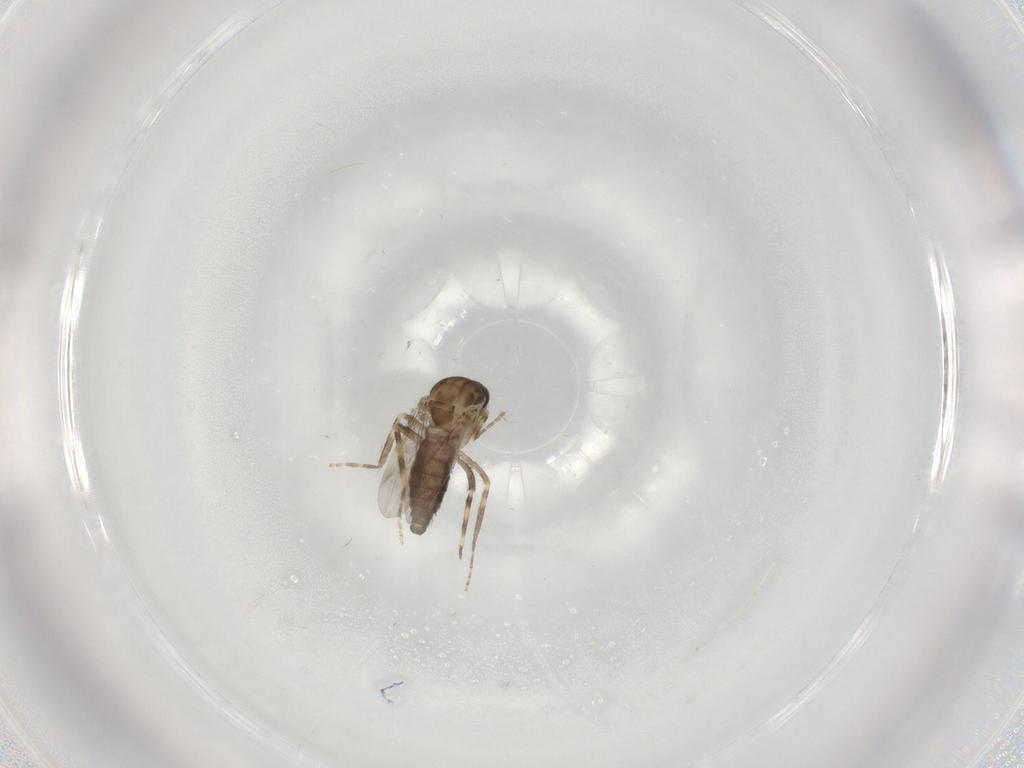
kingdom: Animalia
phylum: Arthropoda
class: Insecta
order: Diptera
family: Ceratopogonidae
